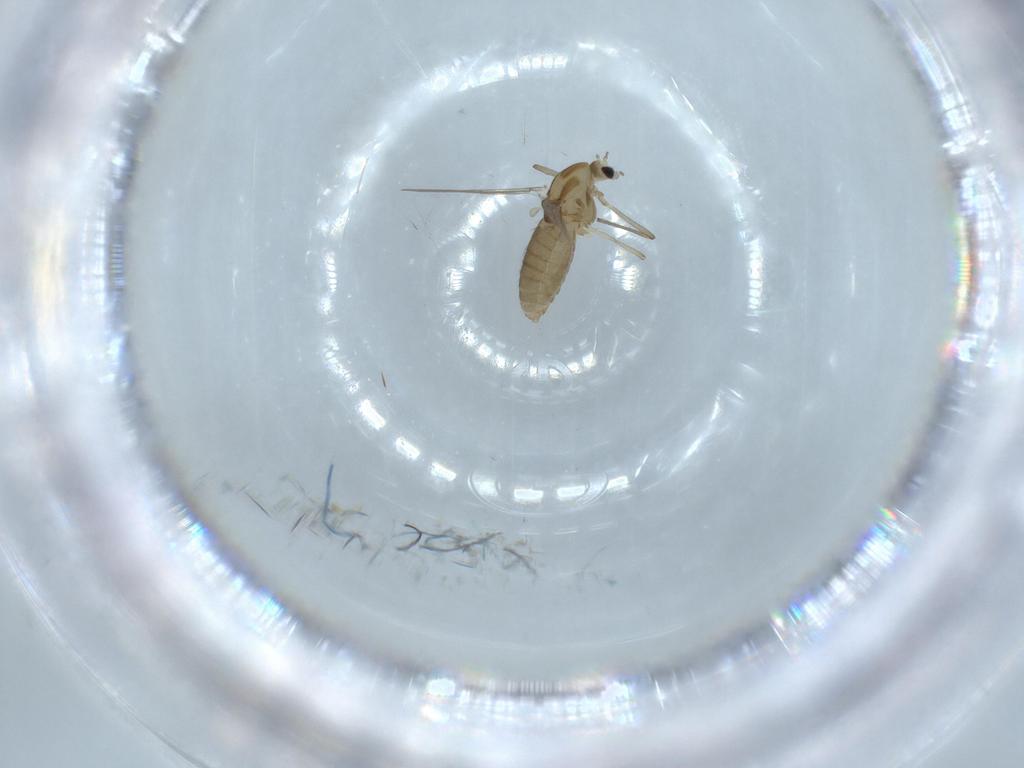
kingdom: Animalia
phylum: Arthropoda
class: Insecta
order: Diptera
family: Chironomidae
